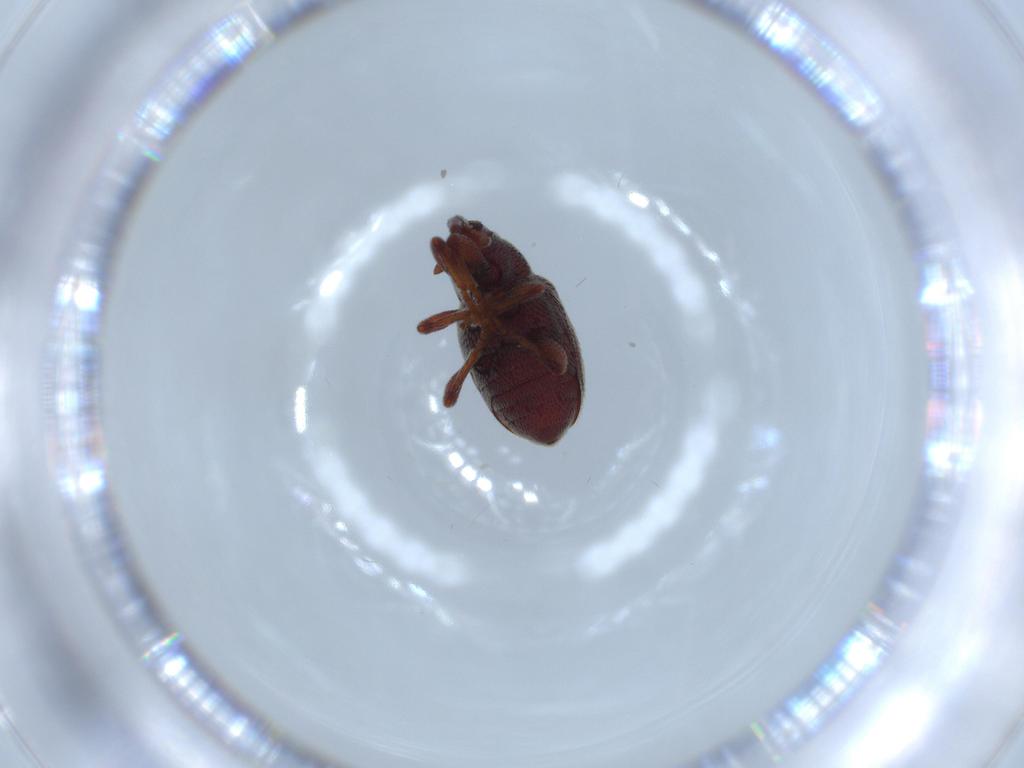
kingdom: Animalia
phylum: Arthropoda
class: Insecta
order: Coleoptera
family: Chrysomelidae
